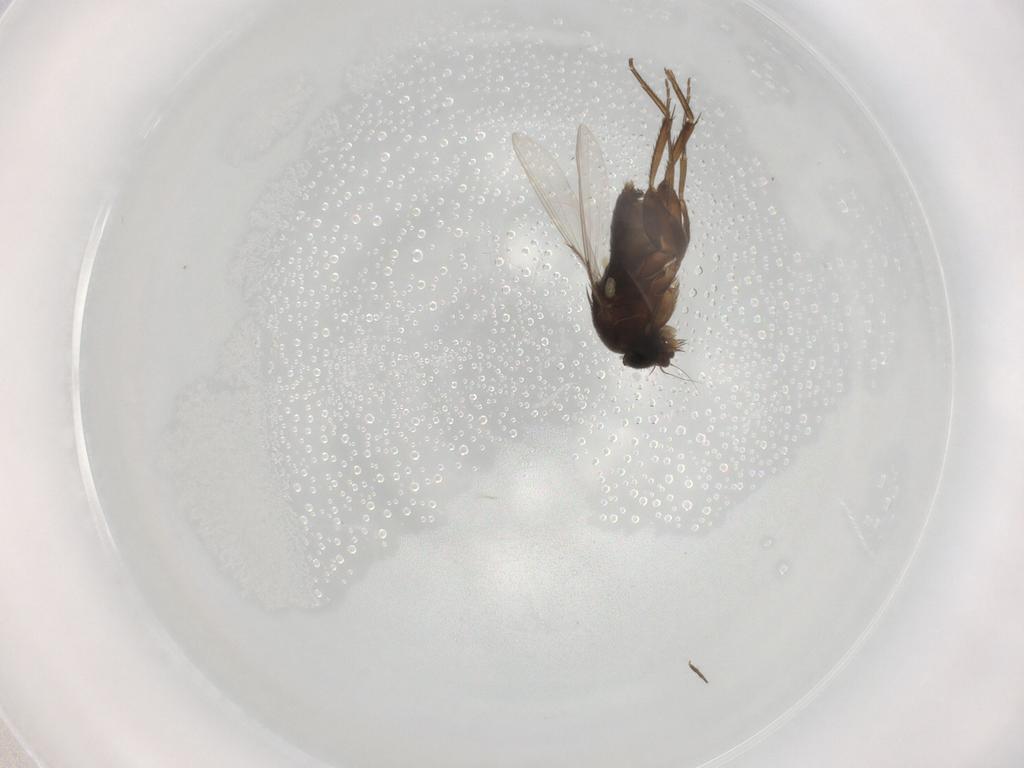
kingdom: Animalia
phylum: Arthropoda
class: Insecta
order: Diptera
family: Phoridae
